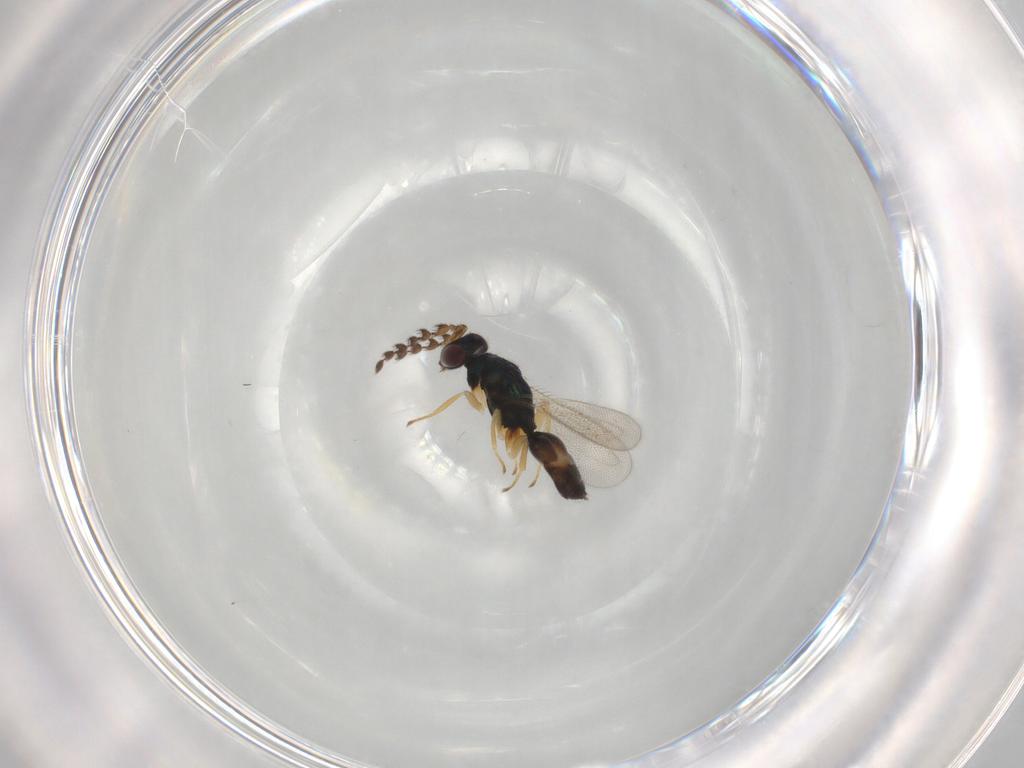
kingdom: Animalia
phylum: Arthropoda
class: Insecta
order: Hymenoptera
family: Eulophidae
